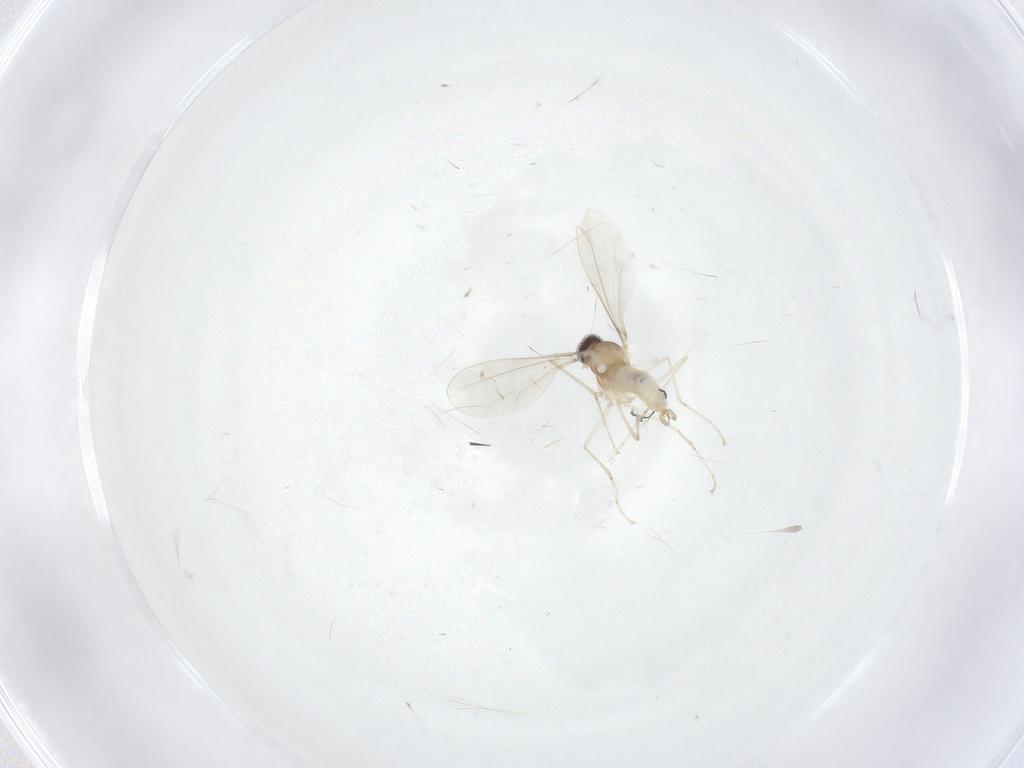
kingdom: Animalia
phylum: Arthropoda
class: Insecta
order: Diptera
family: Cecidomyiidae
